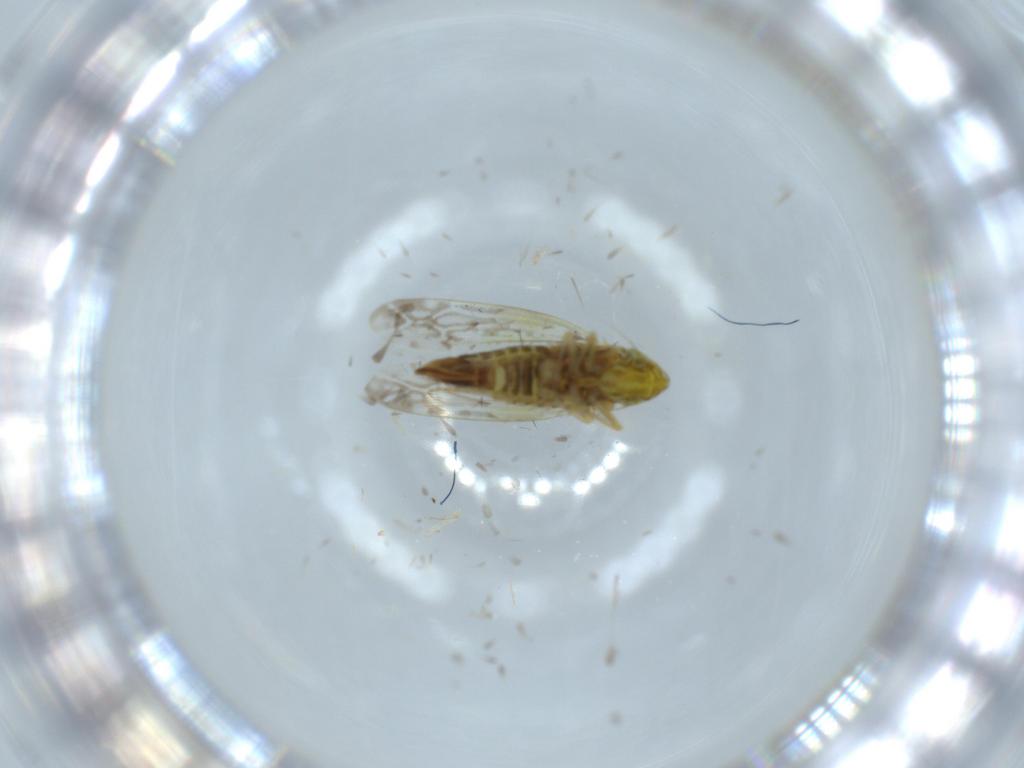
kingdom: Animalia
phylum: Arthropoda
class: Insecta
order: Hemiptera
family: Cicadellidae
